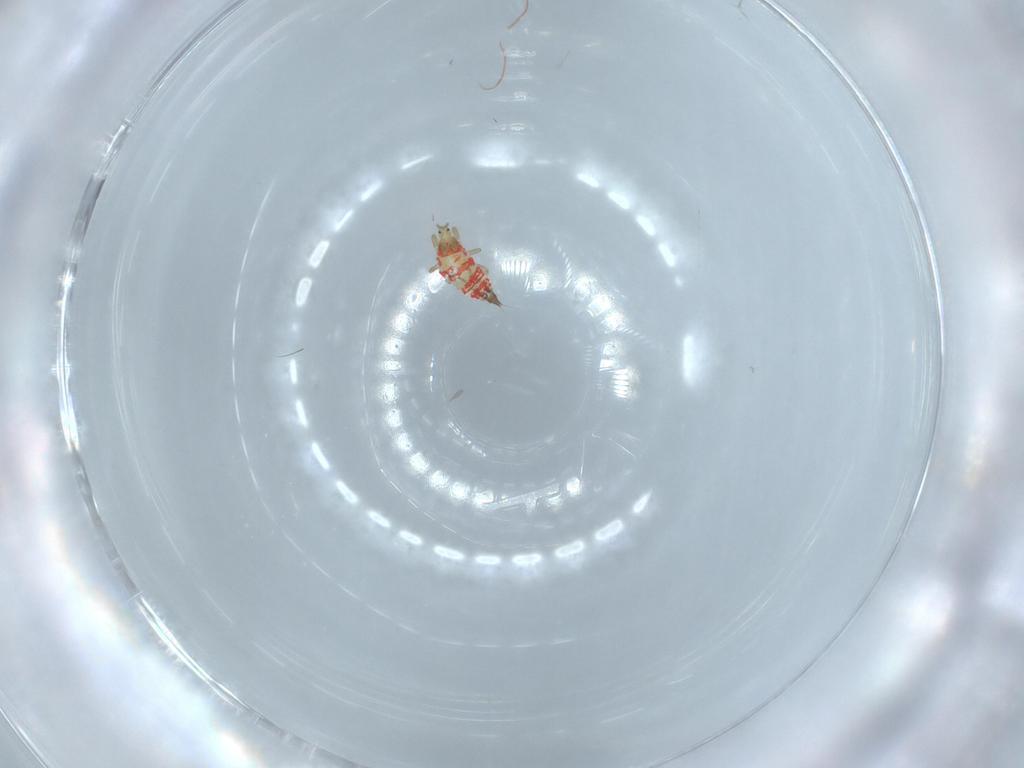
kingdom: Animalia
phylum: Arthropoda
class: Insecta
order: Thysanoptera
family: Phlaeothripidae
